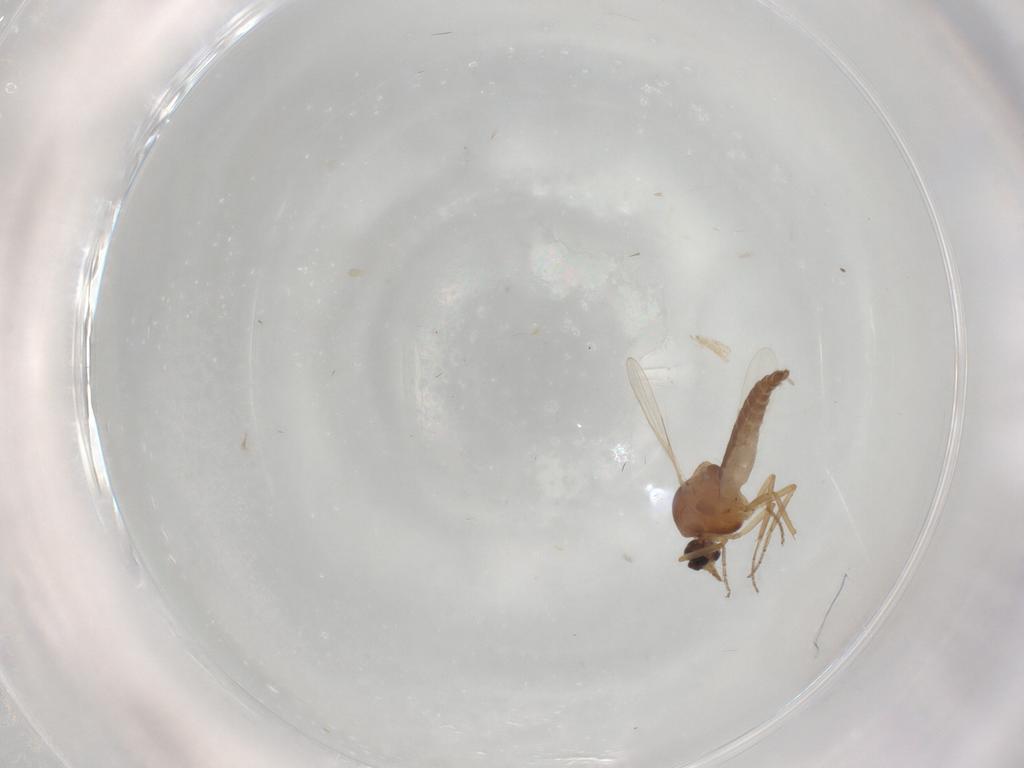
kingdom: Animalia
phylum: Arthropoda
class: Insecta
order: Diptera
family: Ceratopogonidae
